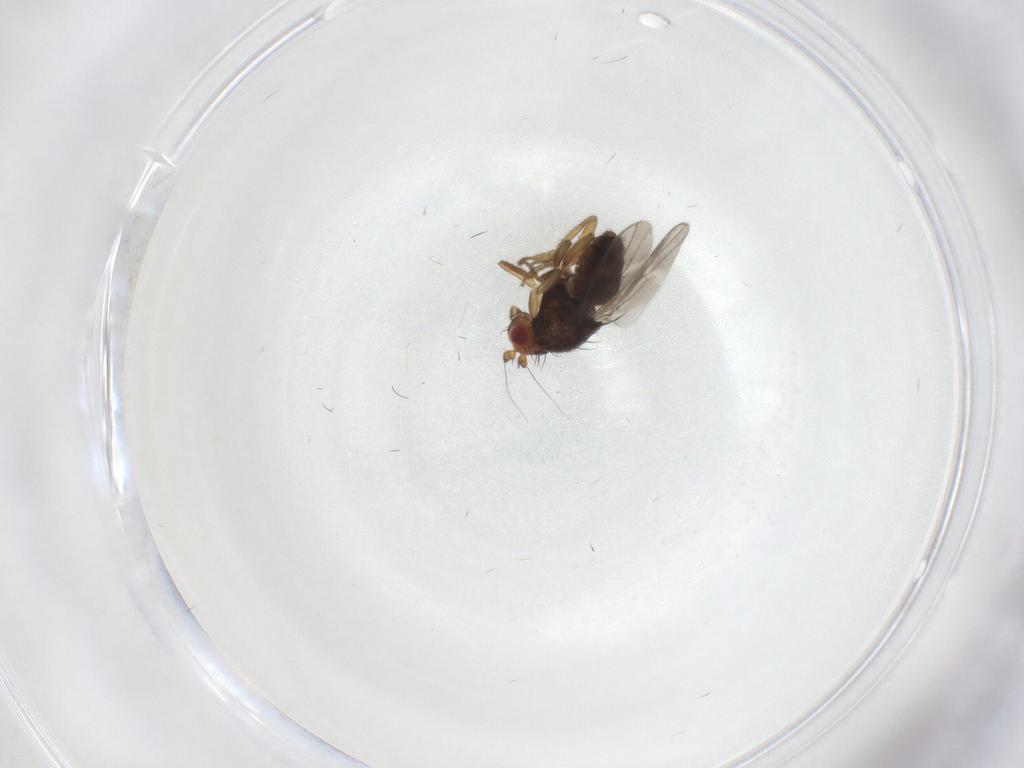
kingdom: Animalia
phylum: Arthropoda
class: Insecta
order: Diptera
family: Sphaeroceridae
